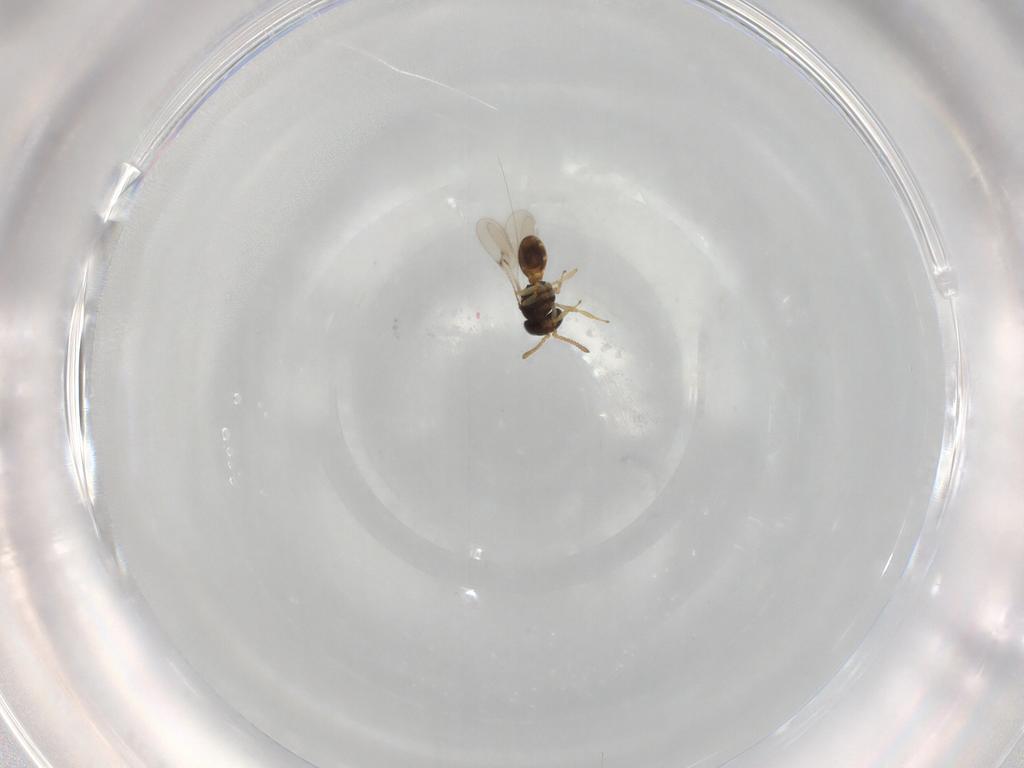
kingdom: Animalia
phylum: Arthropoda
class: Insecta
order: Hymenoptera
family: Scelionidae
